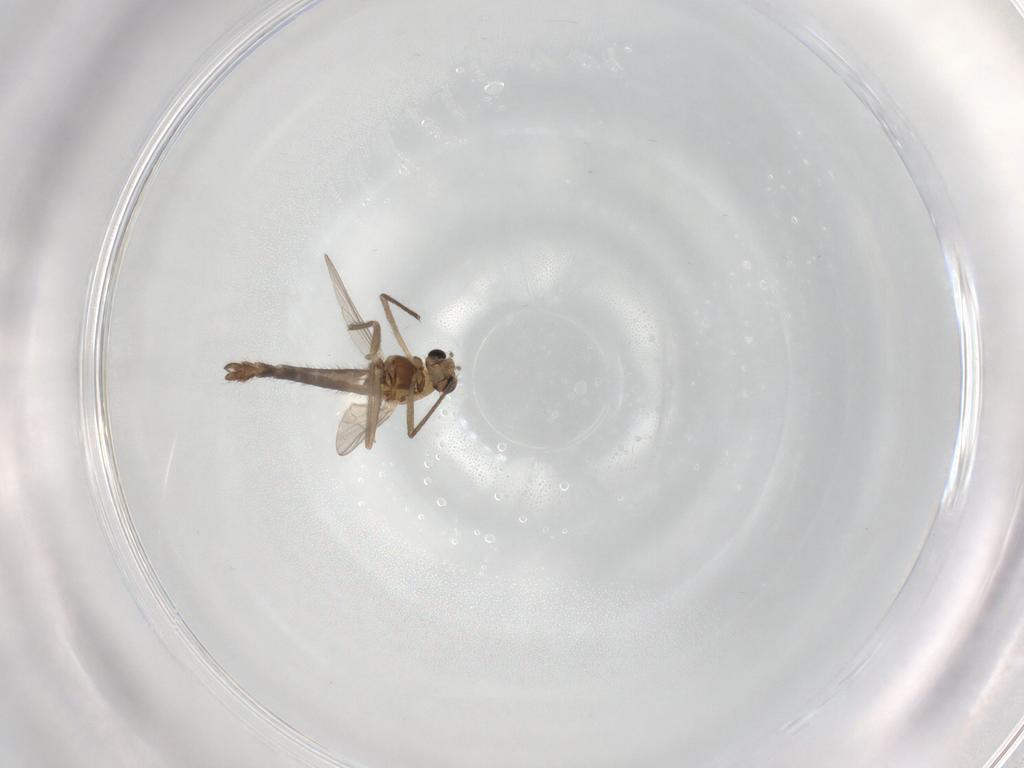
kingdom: Animalia
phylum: Arthropoda
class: Insecta
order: Diptera
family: Chironomidae
